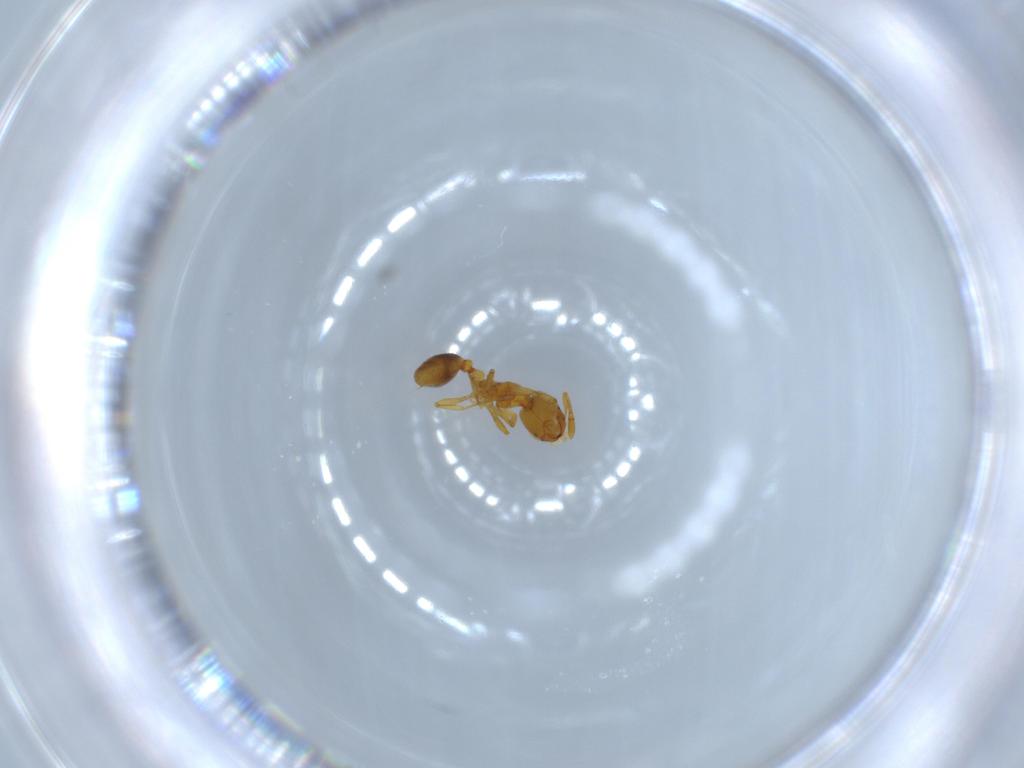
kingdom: Animalia
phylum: Arthropoda
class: Insecta
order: Hymenoptera
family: Formicidae
